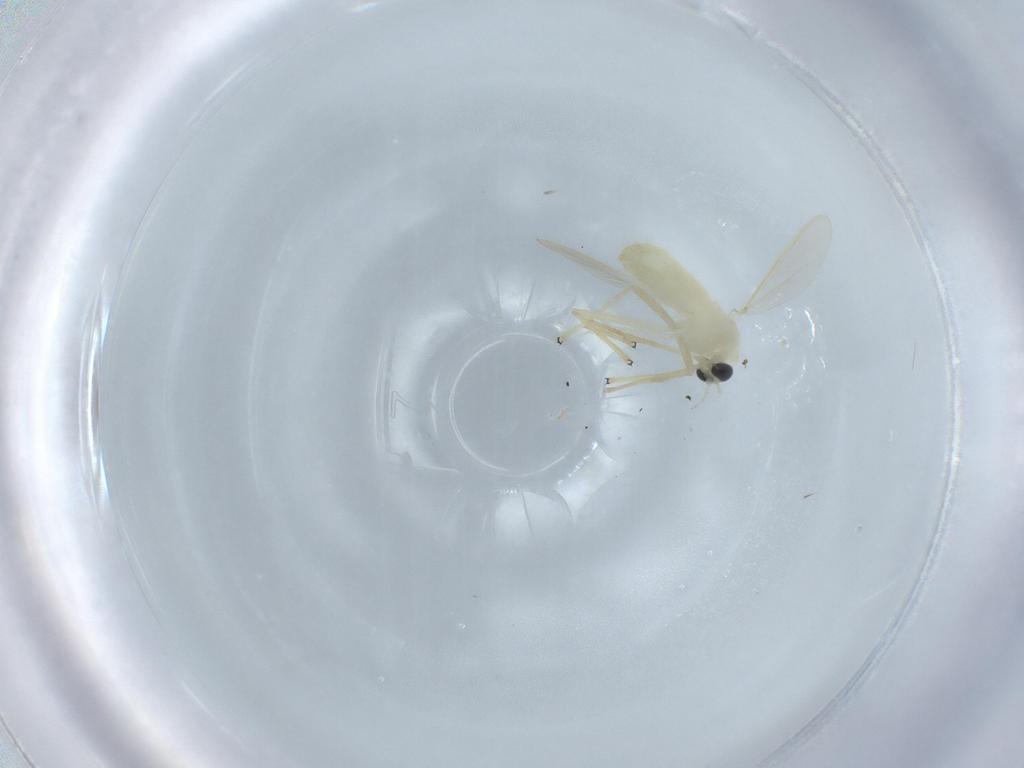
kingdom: Animalia
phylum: Arthropoda
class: Insecta
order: Diptera
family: Chironomidae
